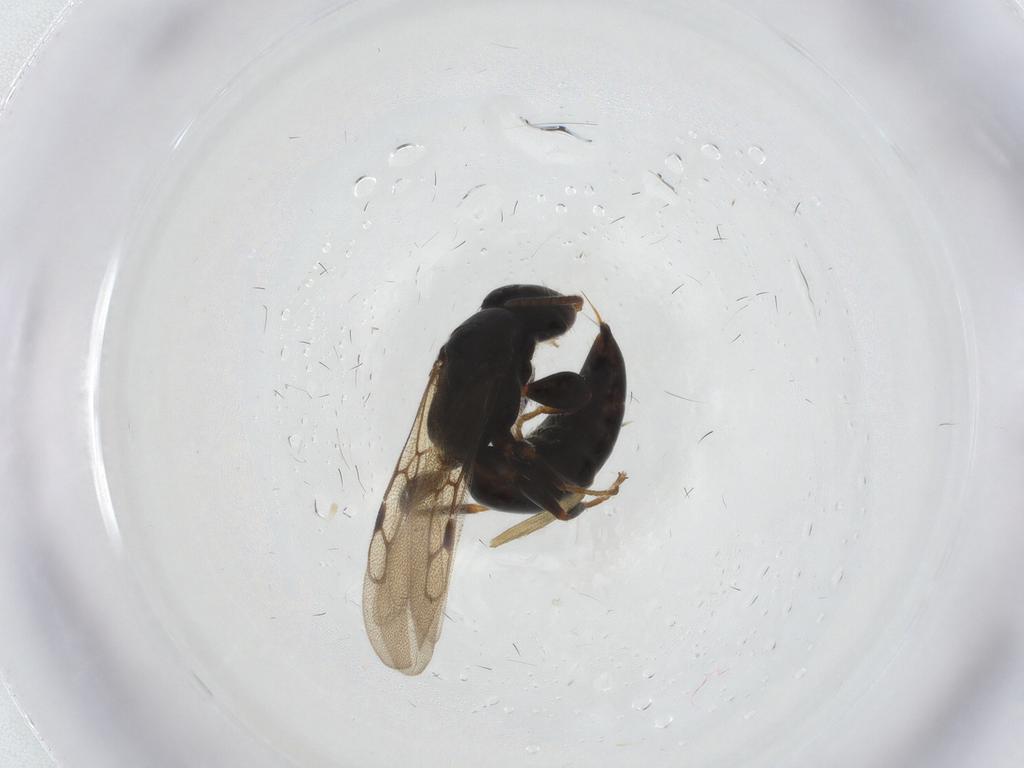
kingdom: Animalia
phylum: Arthropoda
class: Insecta
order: Hymenoptera
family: Bethylidae
